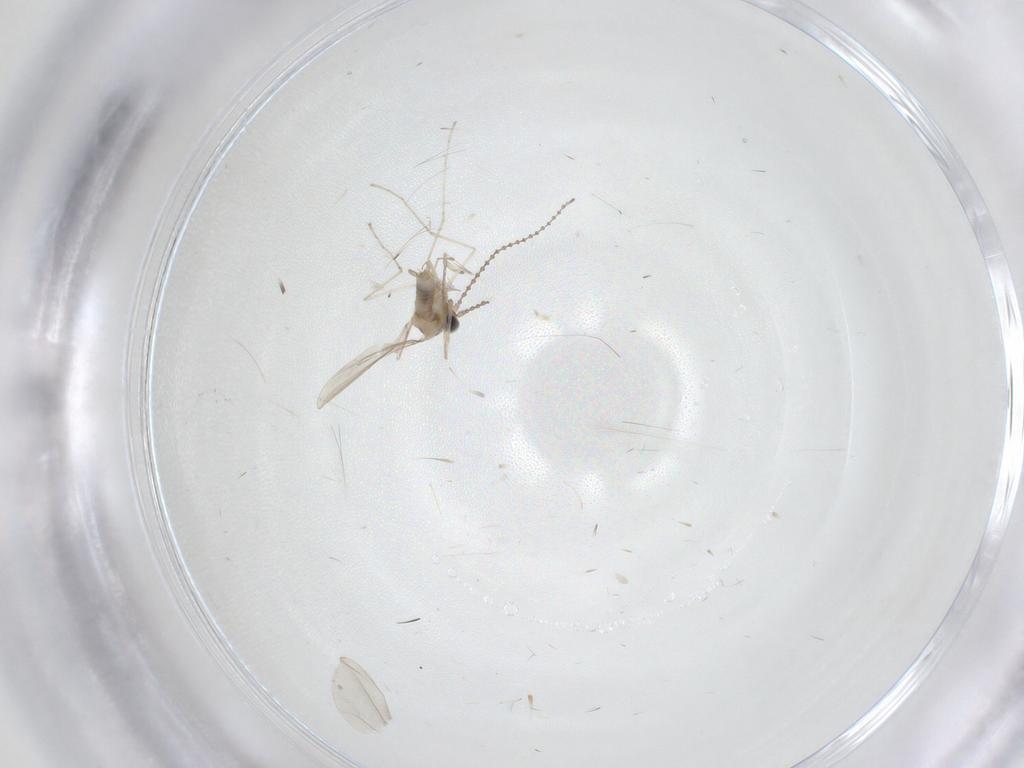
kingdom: Animalia
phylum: Arthropoda
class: Insecta
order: Diptera
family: Cecidomyiidae
